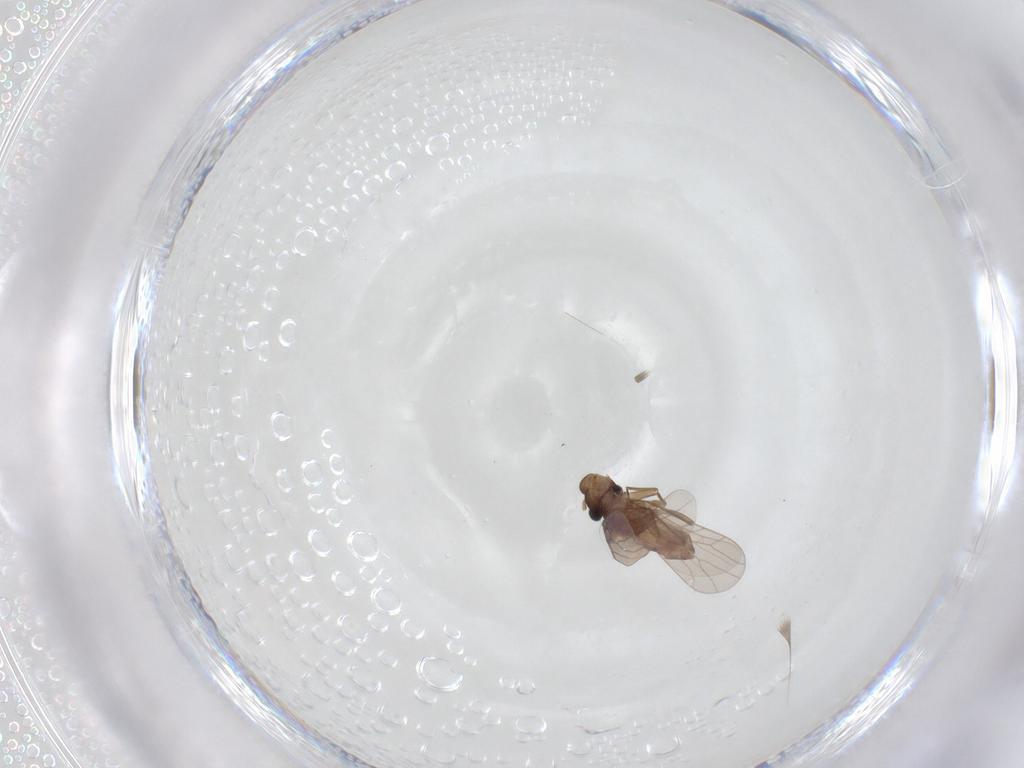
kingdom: Animalia
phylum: Arthropoda
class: Insecta
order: Psocodea
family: Lepidopsocidae
